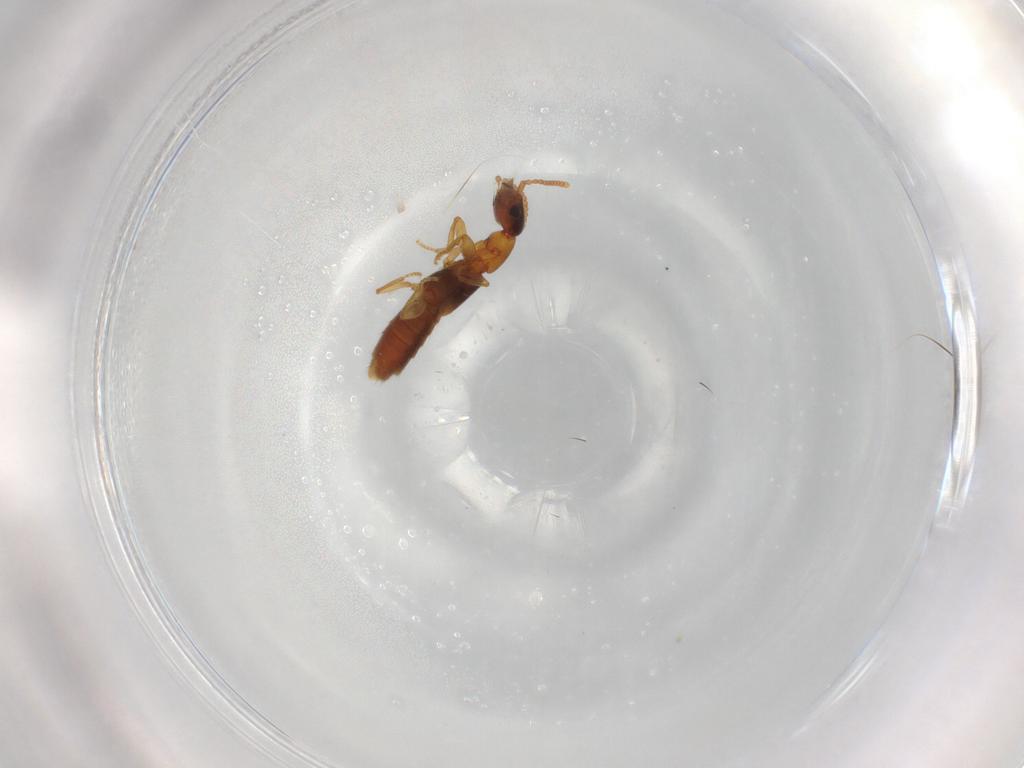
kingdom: Animalia
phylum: Arthropoda
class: Insecta
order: Coleoptera
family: Staphylinidae
